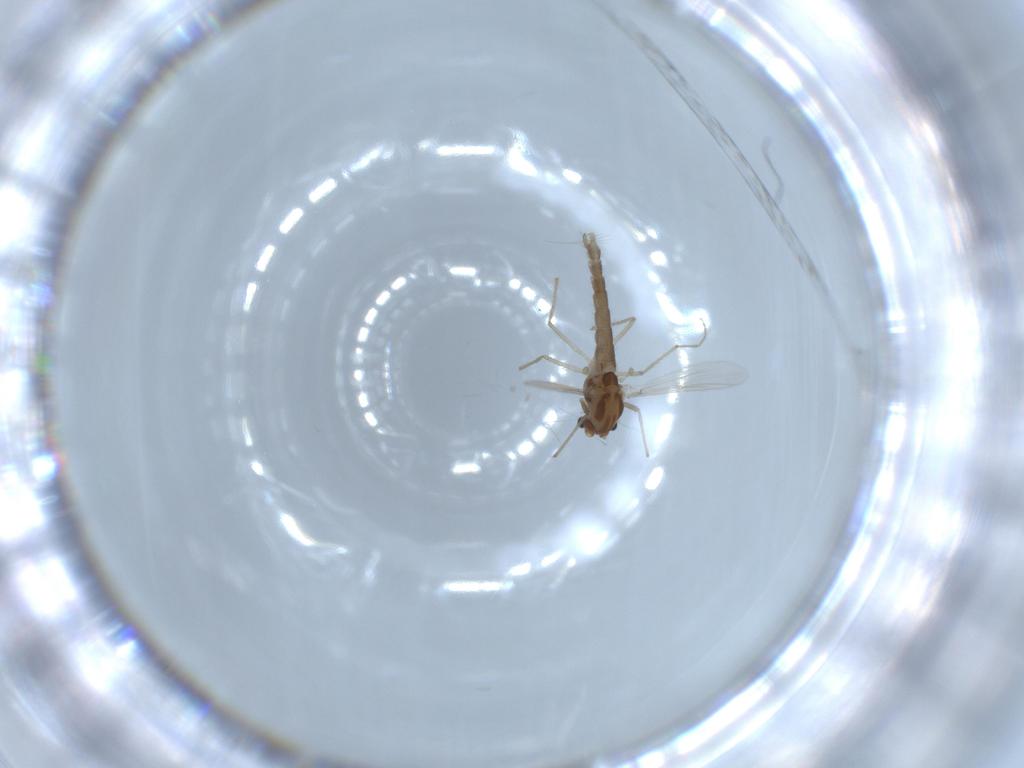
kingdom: Animalia
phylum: Arthropoda
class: Insecta
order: Diptera
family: Chironomidae
